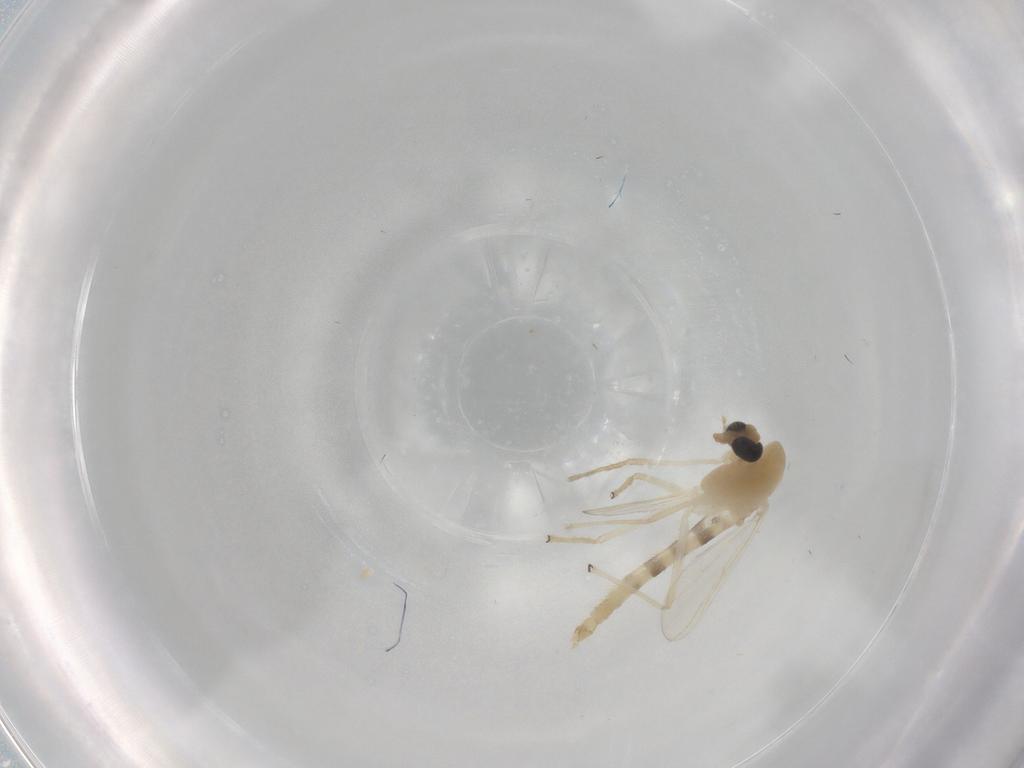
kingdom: Animalia
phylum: Arthropoda
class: Insecta
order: Diptera
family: Chironomidae
